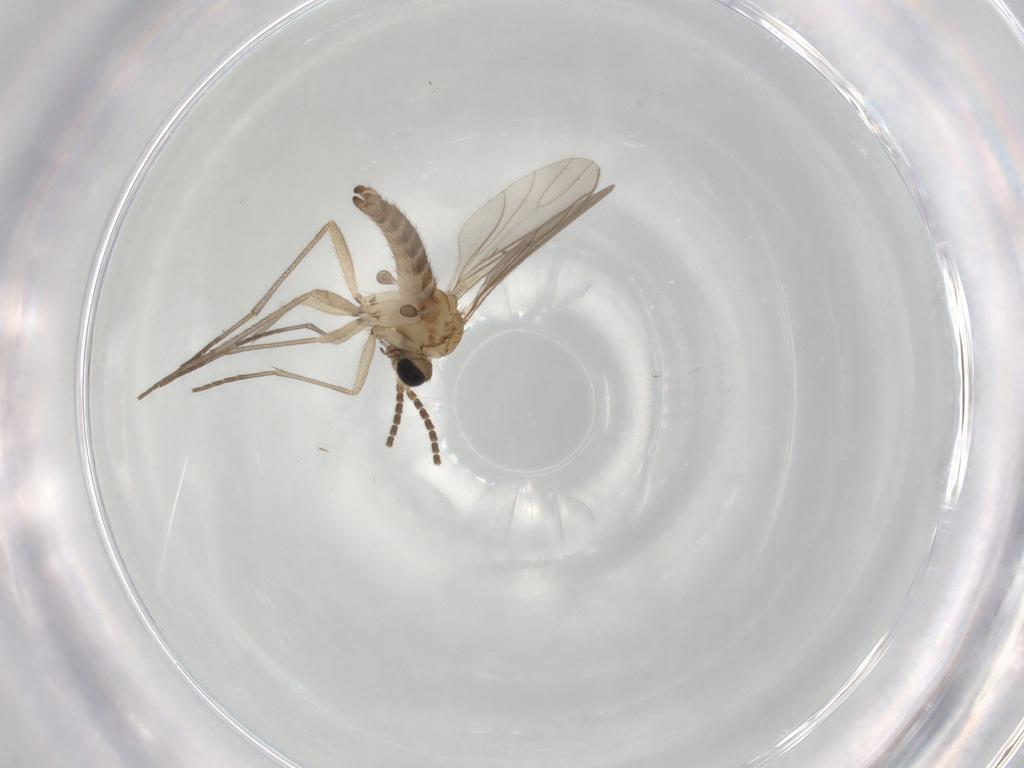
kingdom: Animalia
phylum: Arthropoda
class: Insecta
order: Diptera
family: Sciaridae
